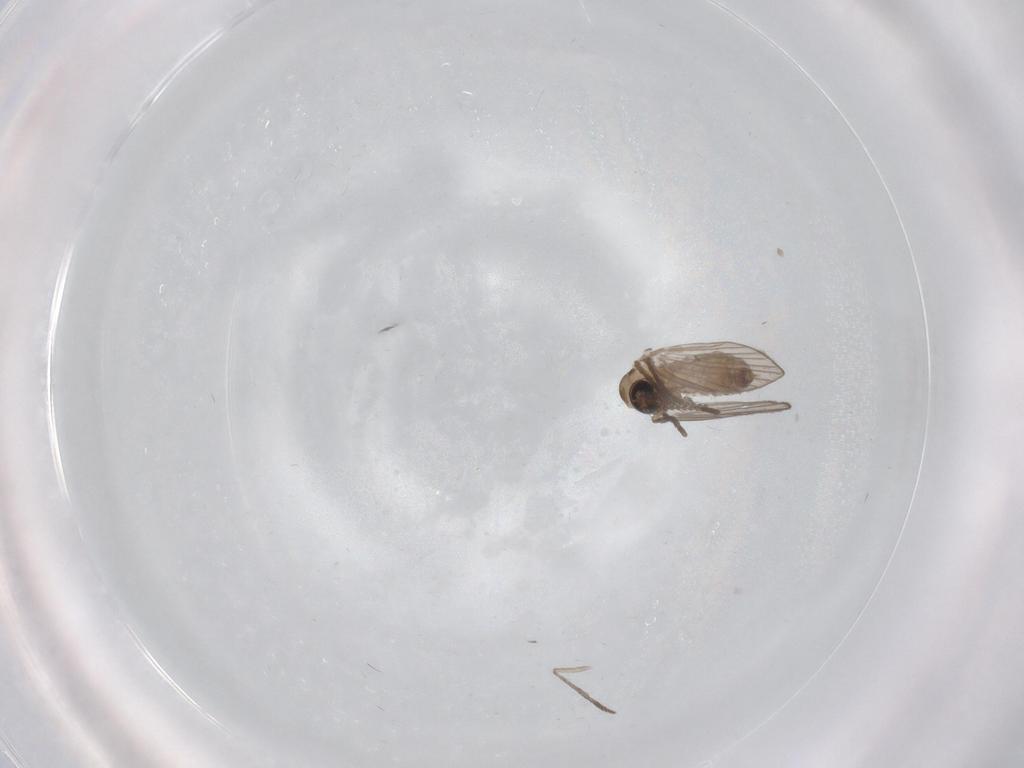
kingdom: Animalia
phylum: Arthropoda
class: Insecta
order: Diptera
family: Psychodidae
